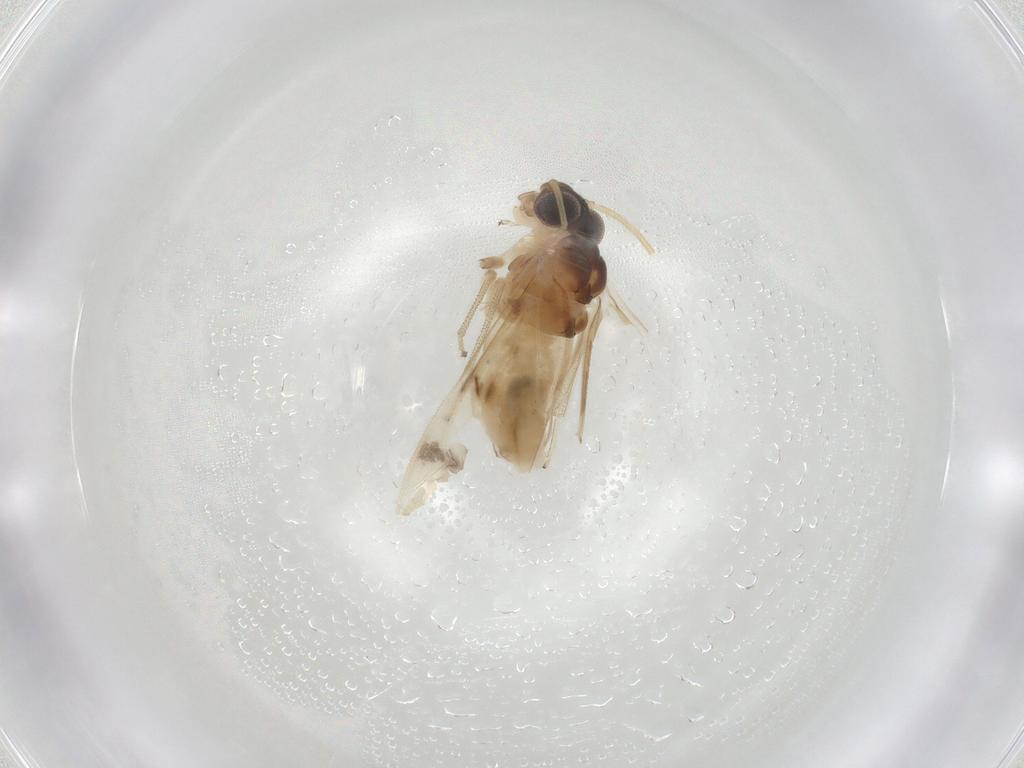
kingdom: Animalia
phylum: Arthropoda
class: Insecta
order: Psocodea
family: Caeciliusidae
